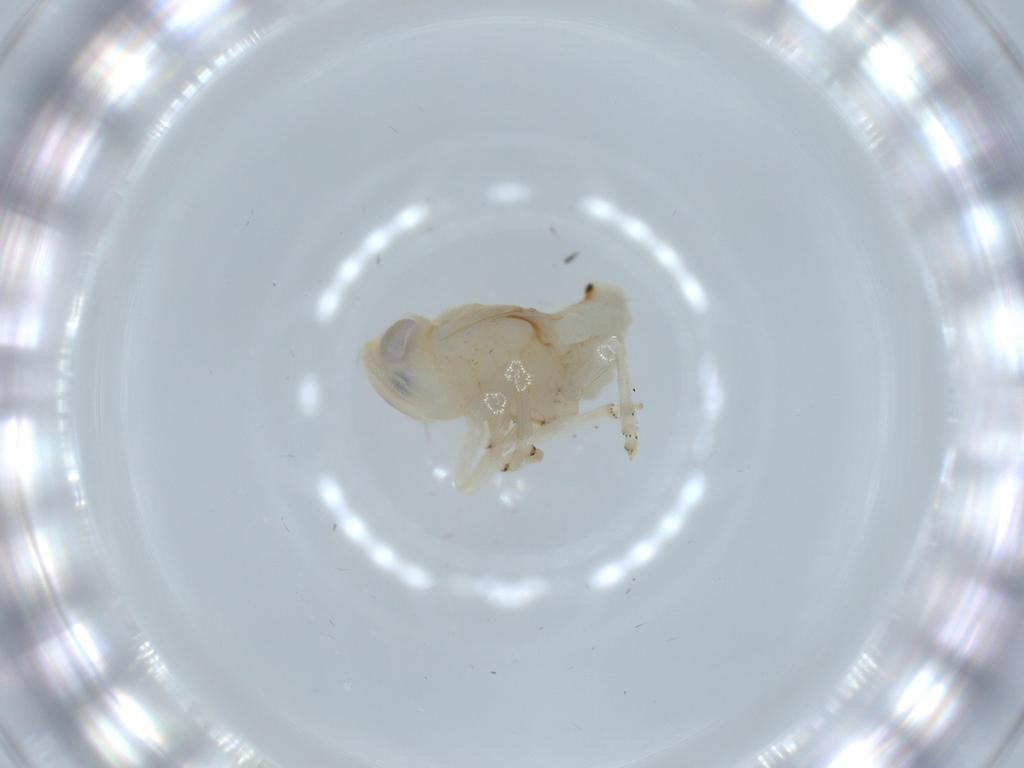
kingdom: Animalia
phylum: Arthropoda
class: Insecta
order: Hemiptera
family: Nogodinidae
